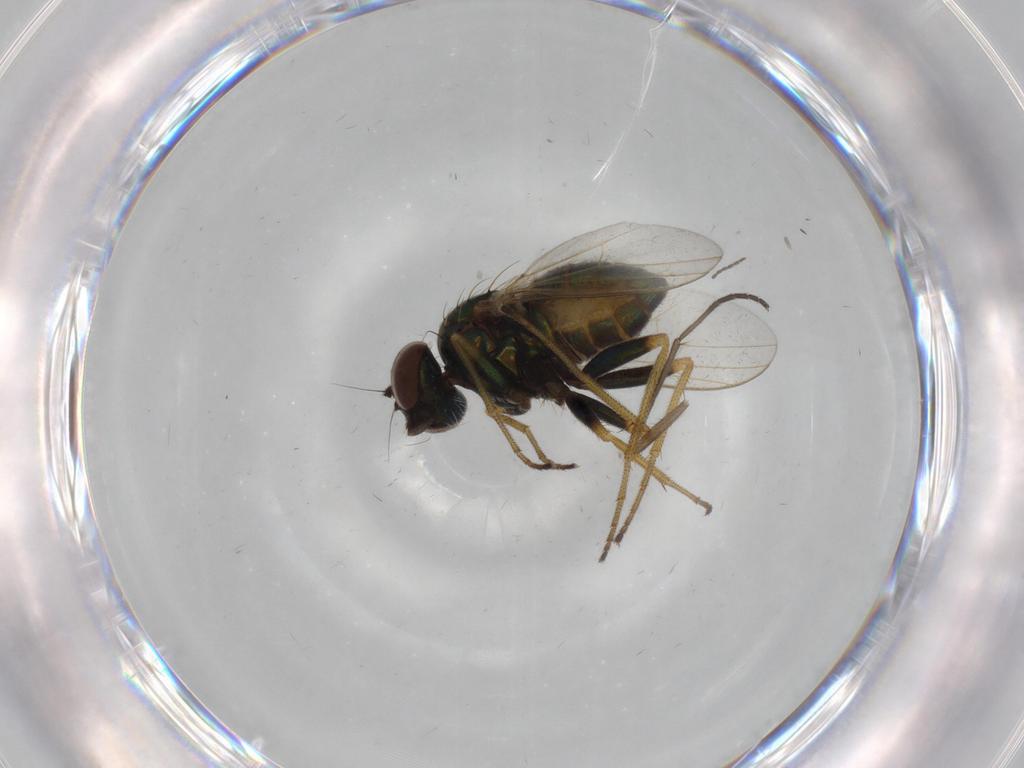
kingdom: Animalia
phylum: Arthropoda
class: Insecta
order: Diptera
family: Dolichopodidae
